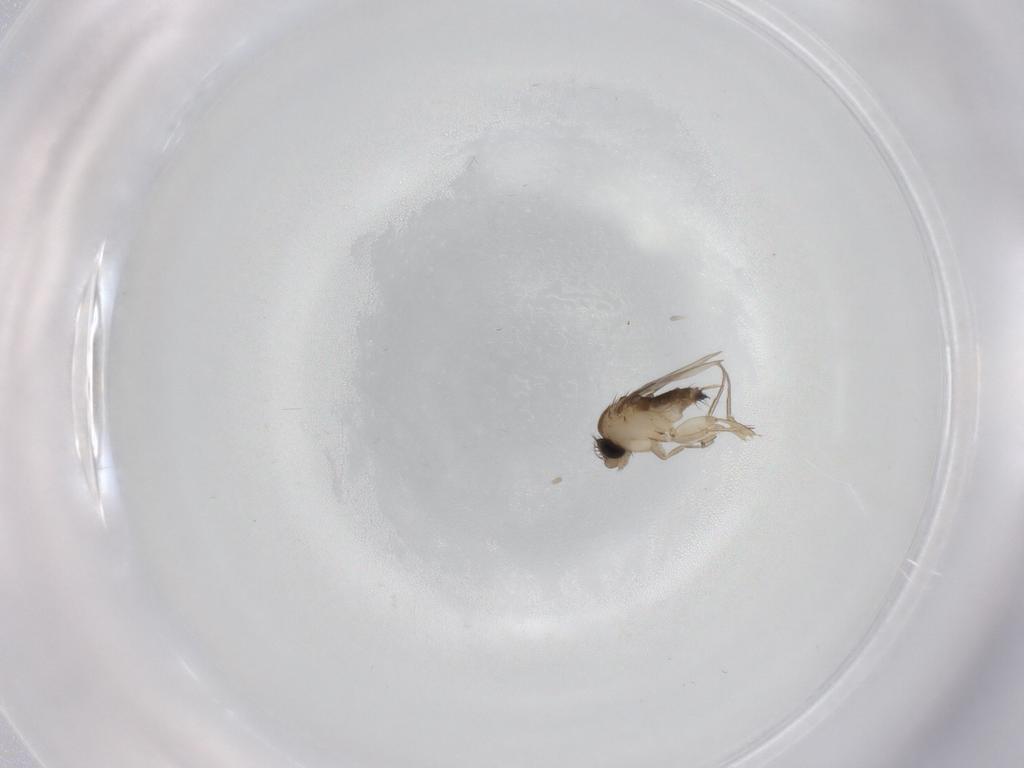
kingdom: Animalia
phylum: Arthropoda
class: Insecta
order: Diptera
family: Phoridae
